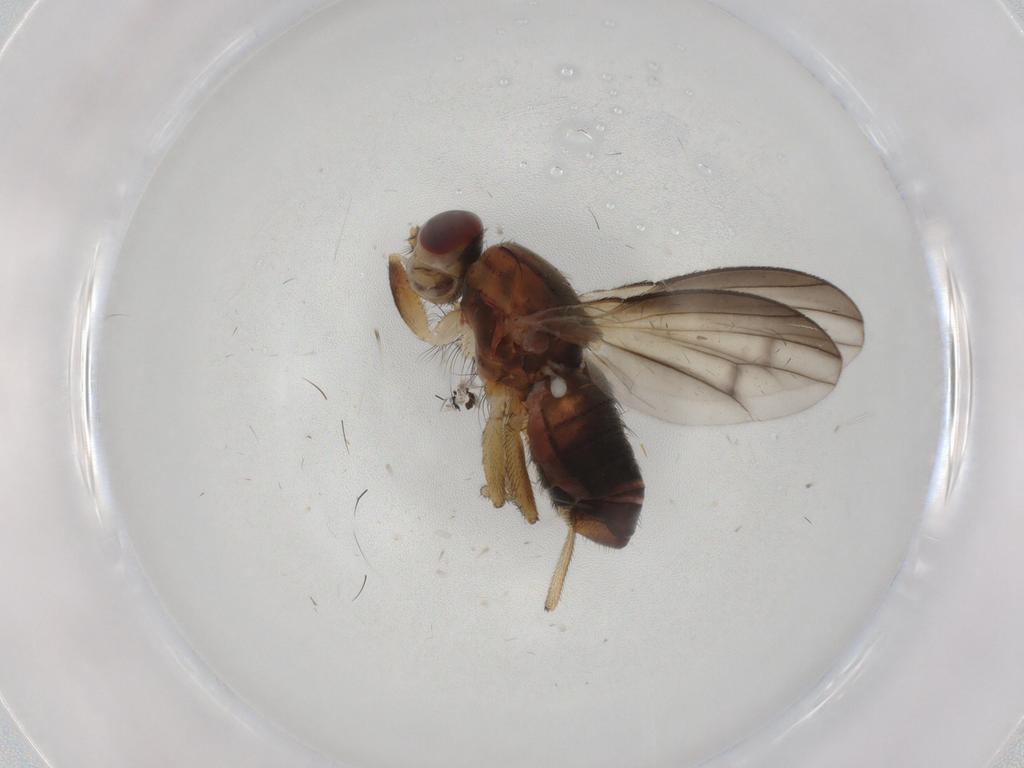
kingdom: Animalia
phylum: Arthropoda
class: Insecta
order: Diptera
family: Heleomyzidae
